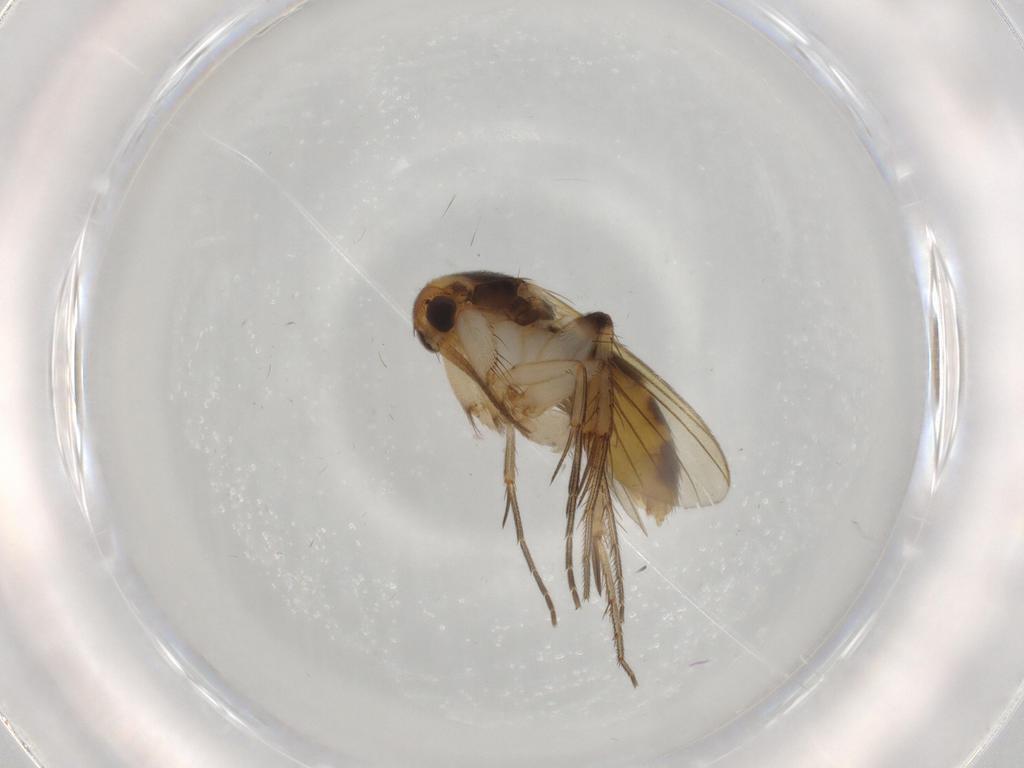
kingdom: Animalia
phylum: Arthropoda
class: Insecta
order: Diptera
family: Mycetophilidae
